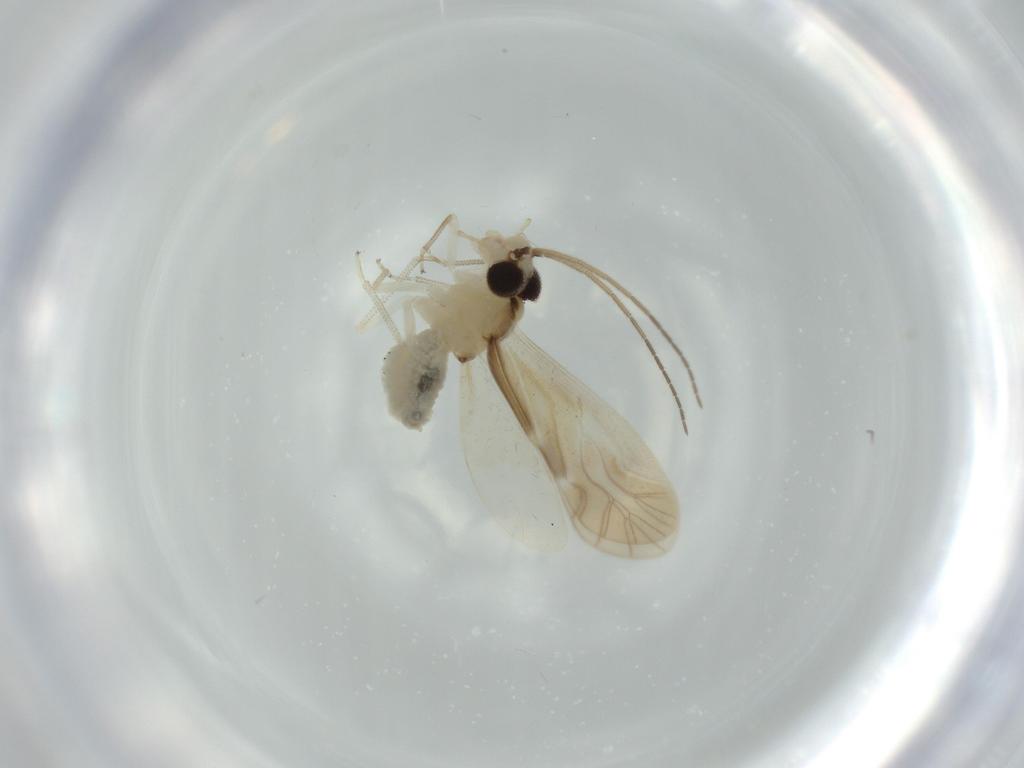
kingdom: Animalia
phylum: Arthropoda
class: Insecta
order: Psocodea
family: Caeciliusidae
